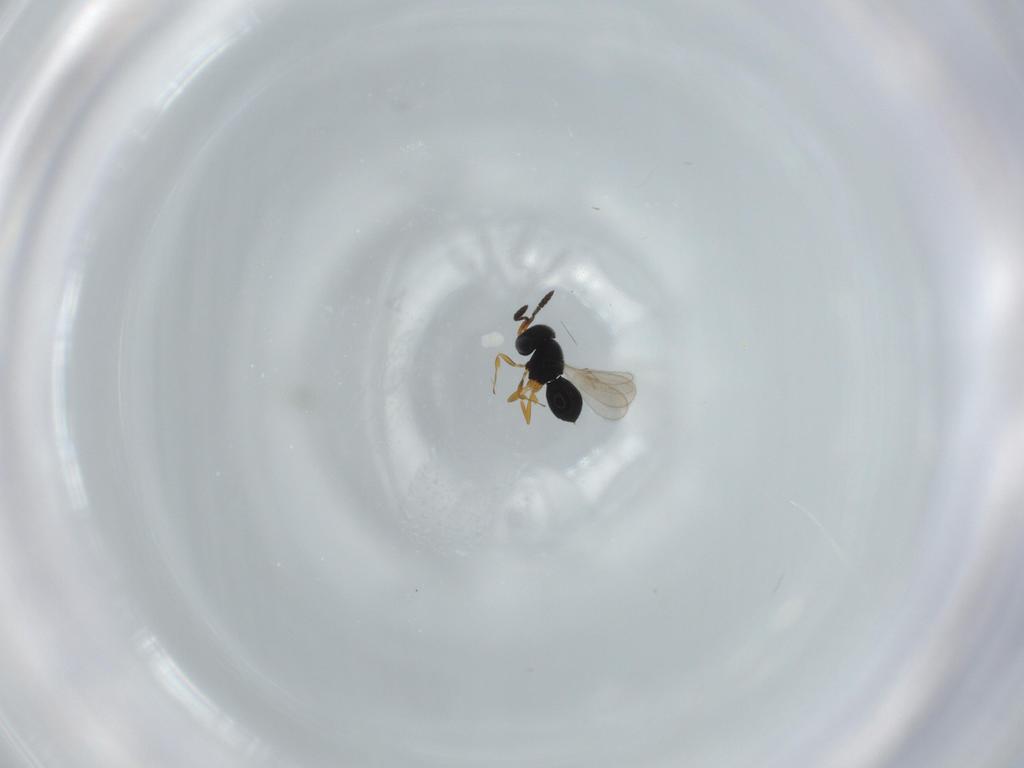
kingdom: Animalia
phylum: Arthropoda
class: Insecta
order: Hymenoptera
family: Scelionidae
